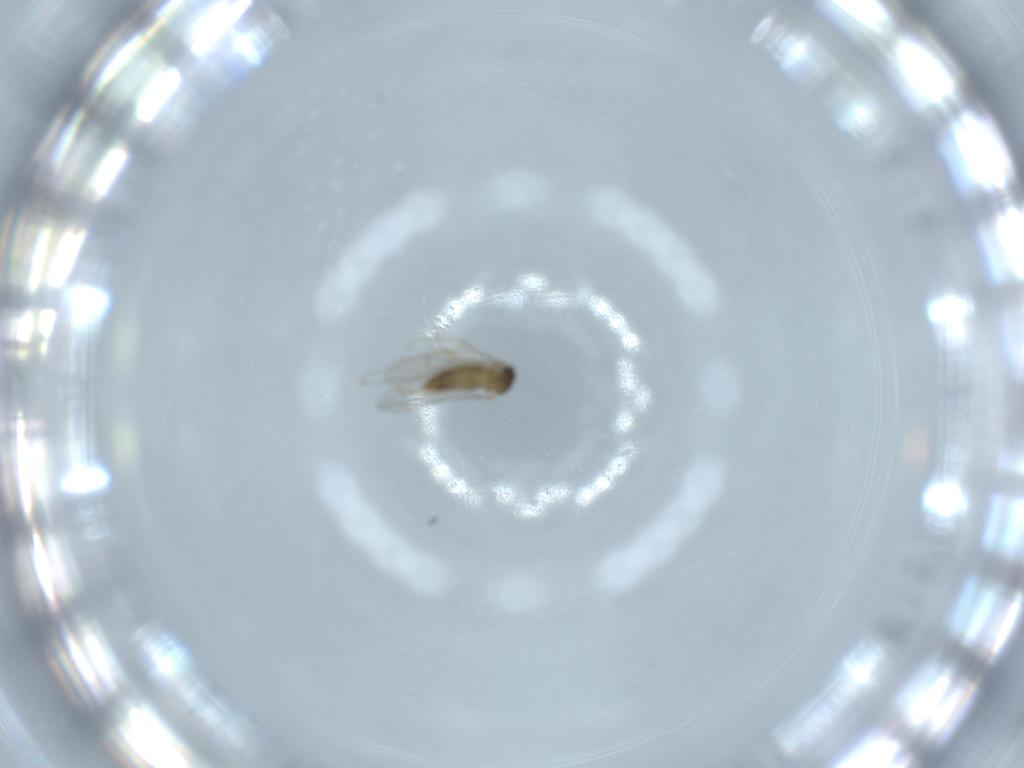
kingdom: Animalia
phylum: Arthropoda
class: Insecta
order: Diptera
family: Cecidomyiidae
